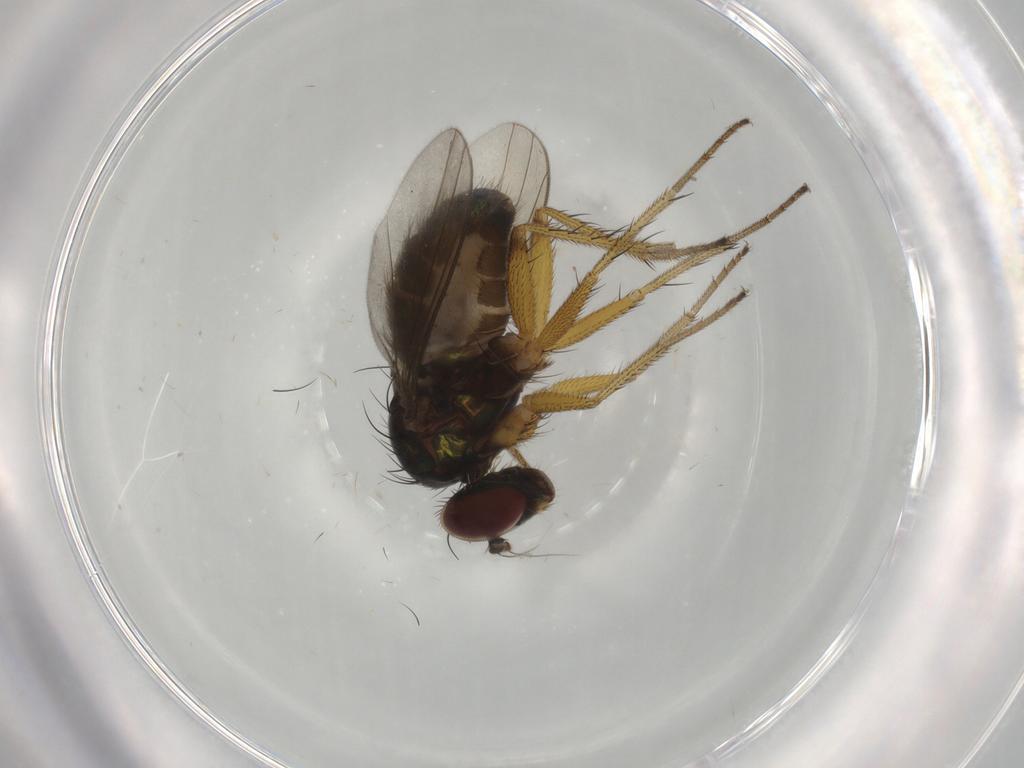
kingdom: Animalia
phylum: Arthropoda
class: Insecta
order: Diptera
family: Dolichopodidae
